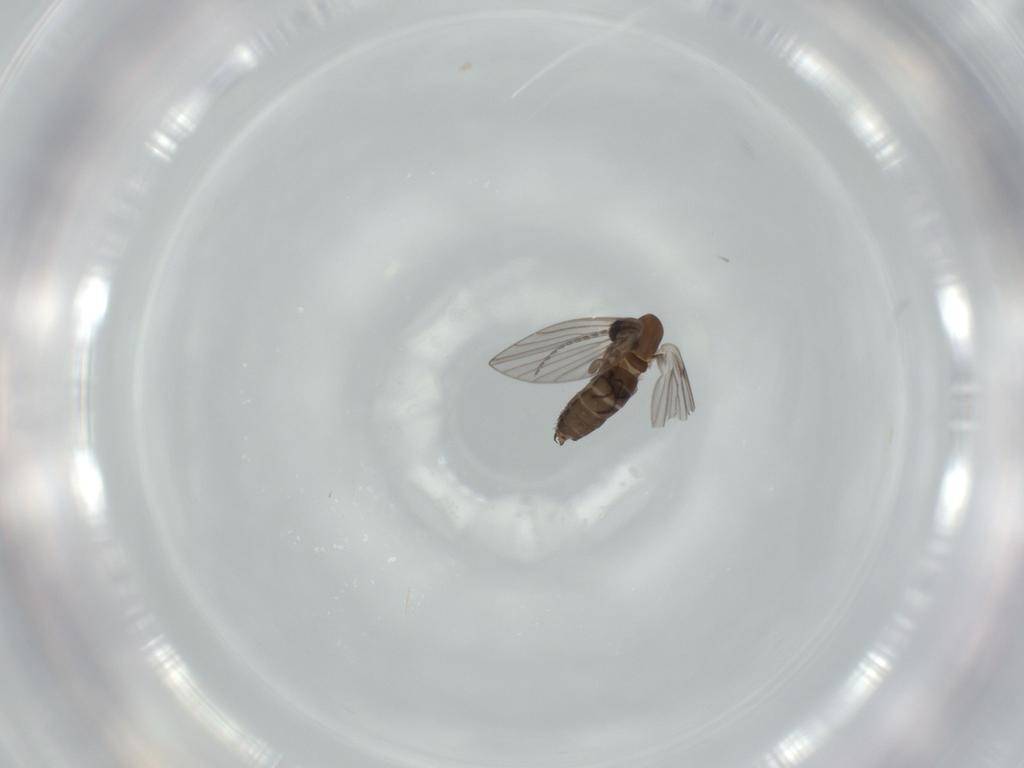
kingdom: Animalia
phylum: Arthropoda
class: Insecta
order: Diptera
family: Psychodidae
